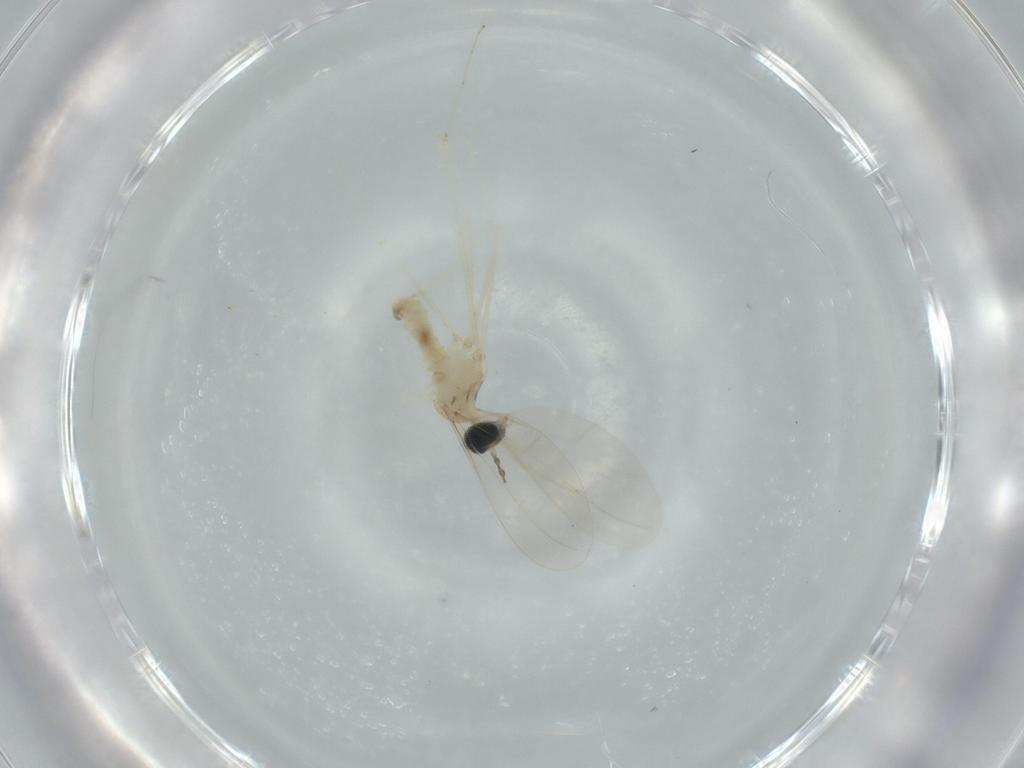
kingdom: Animalia
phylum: Arthropoda
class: Insecta
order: Diptera
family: Cecidomyiidae
